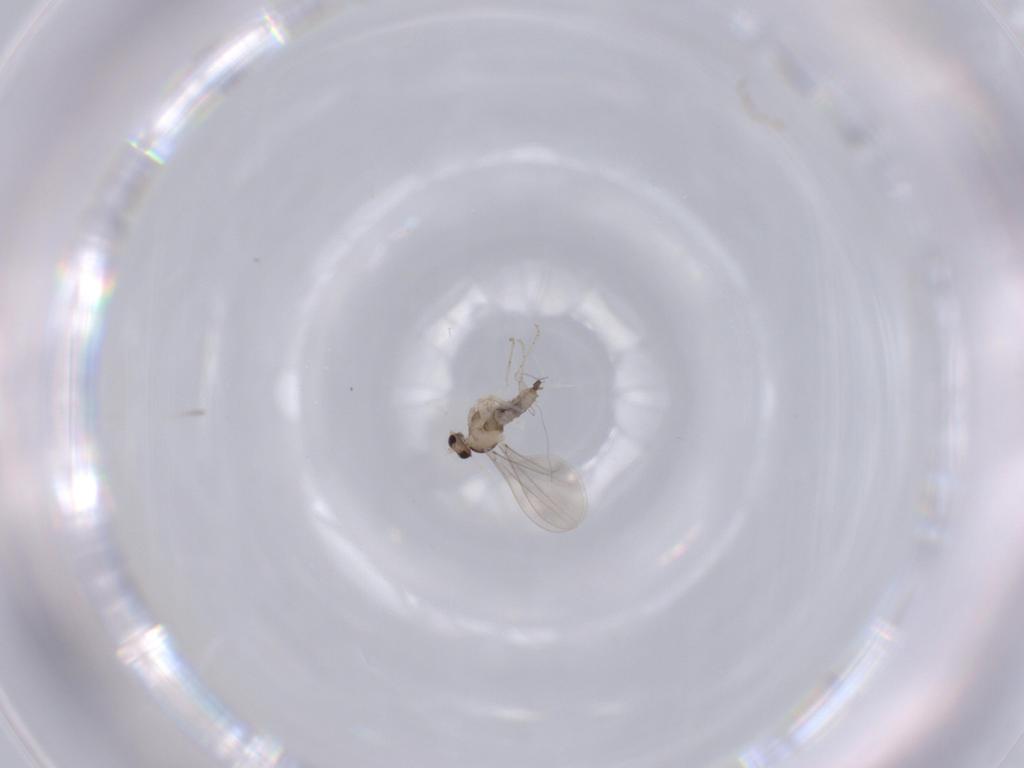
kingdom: Animalia
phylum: Arthropoda
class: Insecta
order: Diptera
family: Cecidomyiidae
